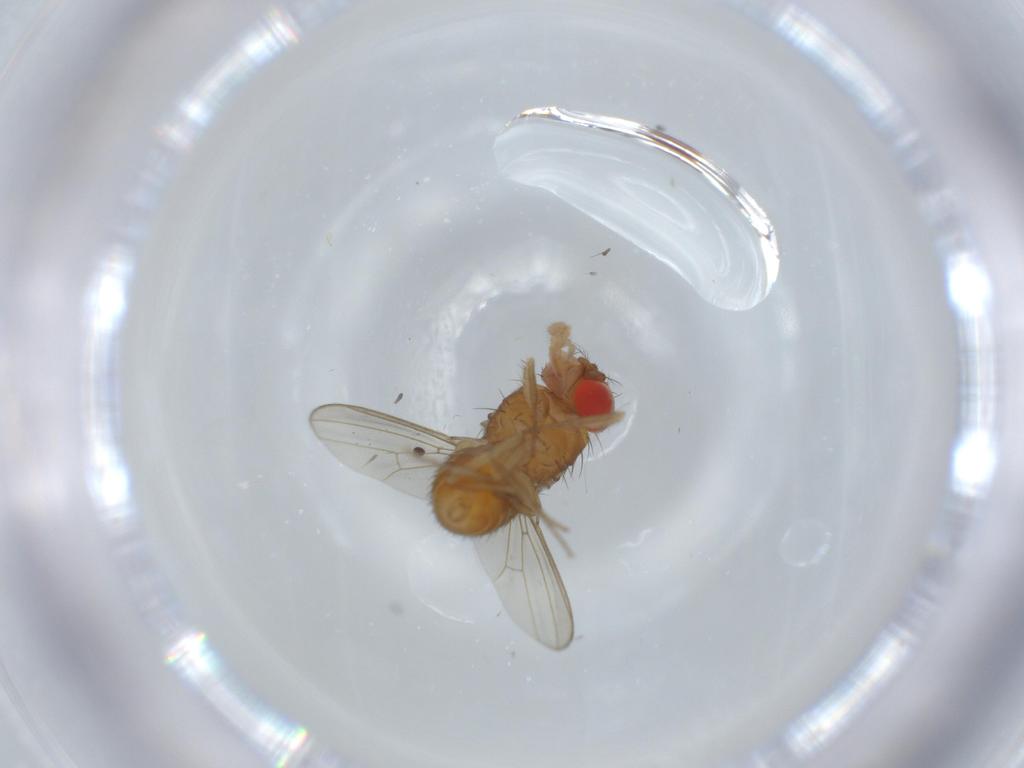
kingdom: Animalia
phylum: Arthropoda
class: Insecta
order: Diptera
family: Drosophilidae
